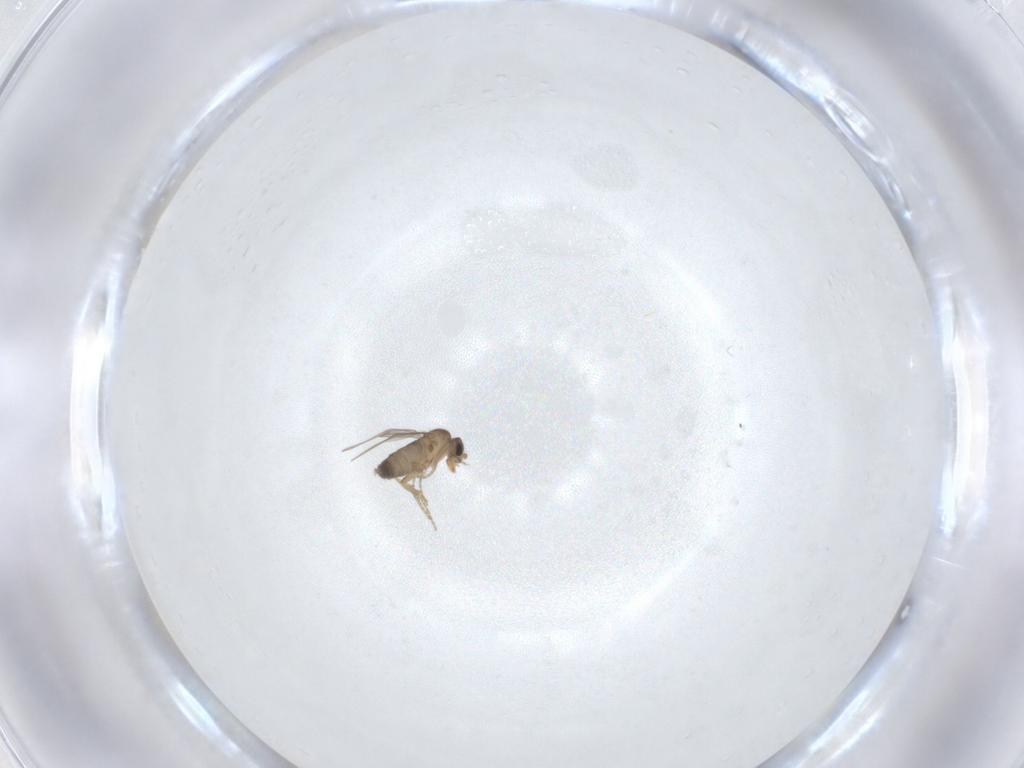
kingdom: Animalia
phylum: Arthropoda
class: Insecta
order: Diptera
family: Phoridae
